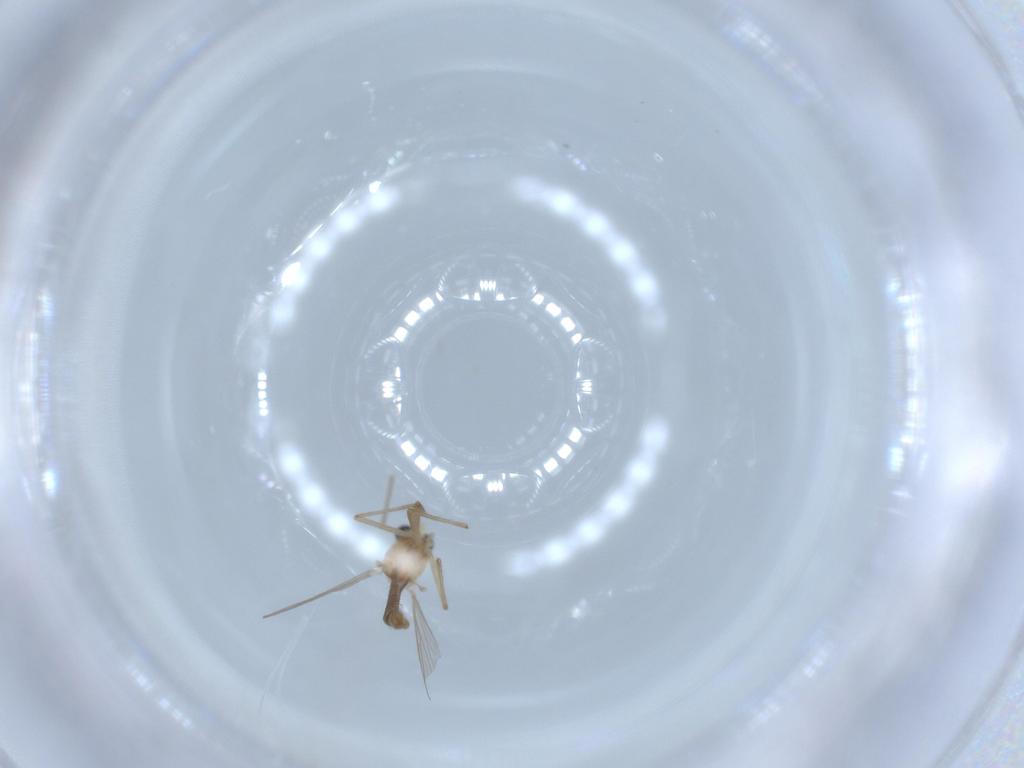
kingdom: Animalia
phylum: Arthropoda
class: Insecta
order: Diptera
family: Chironomidae
